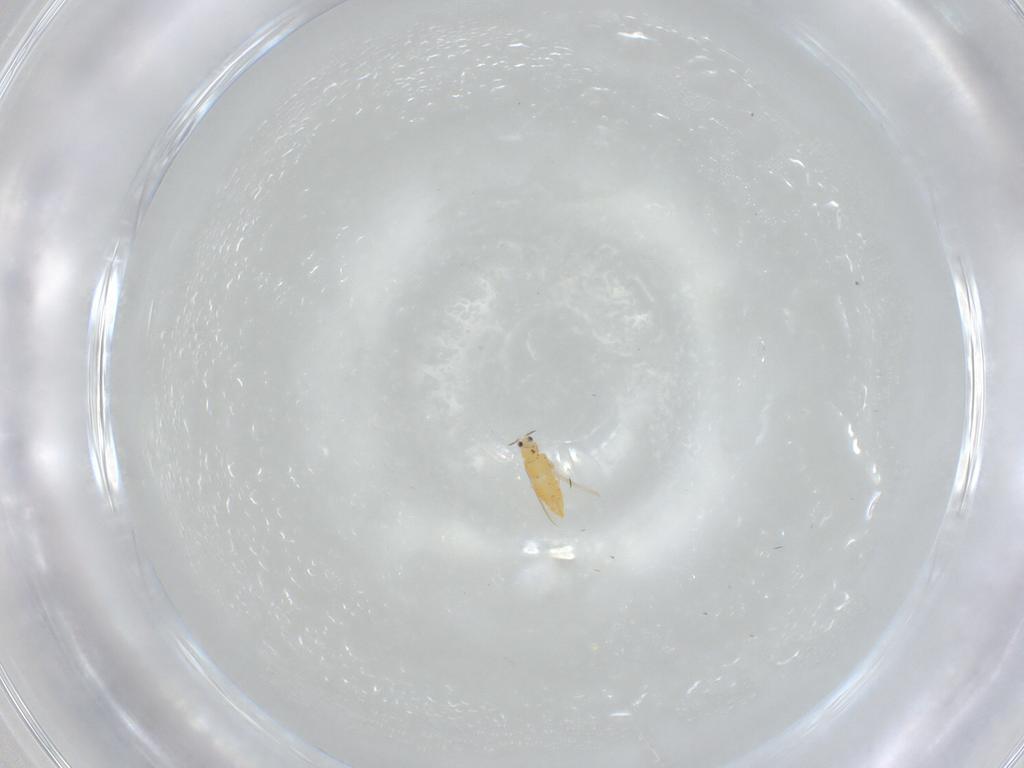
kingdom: Animalia
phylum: Arthropoda
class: Insecta
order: Thysanoptera
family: Thripidae
